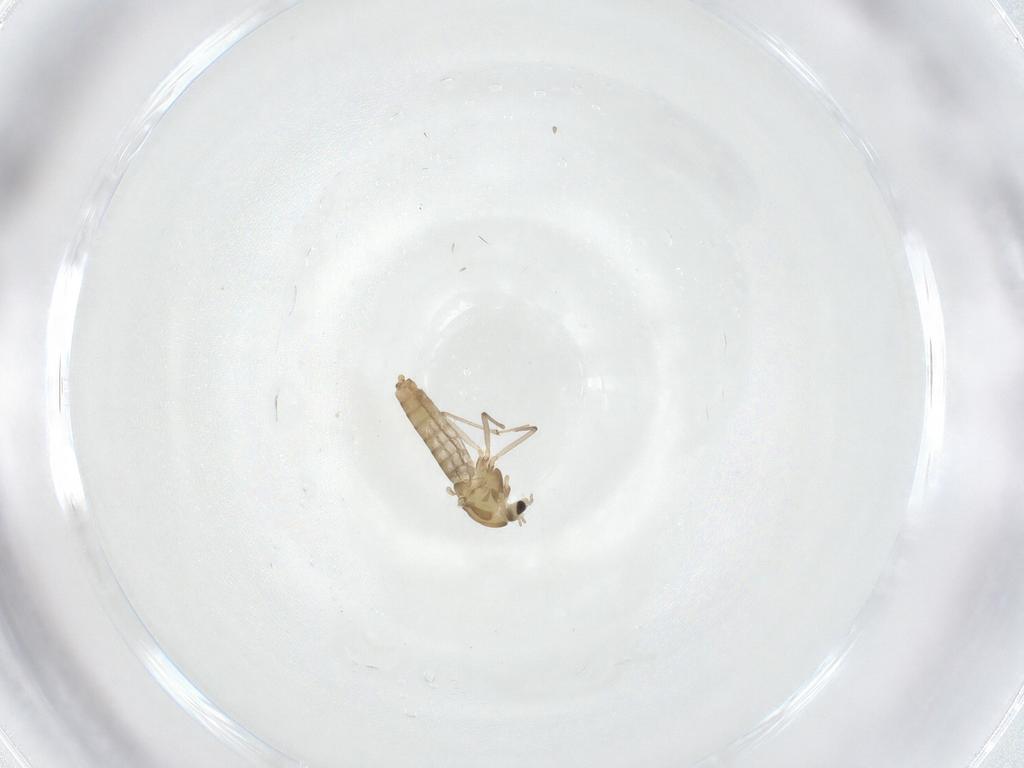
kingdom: Animalia
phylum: Arthropoda
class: Insecta
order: Diptera
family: Chironomidae
